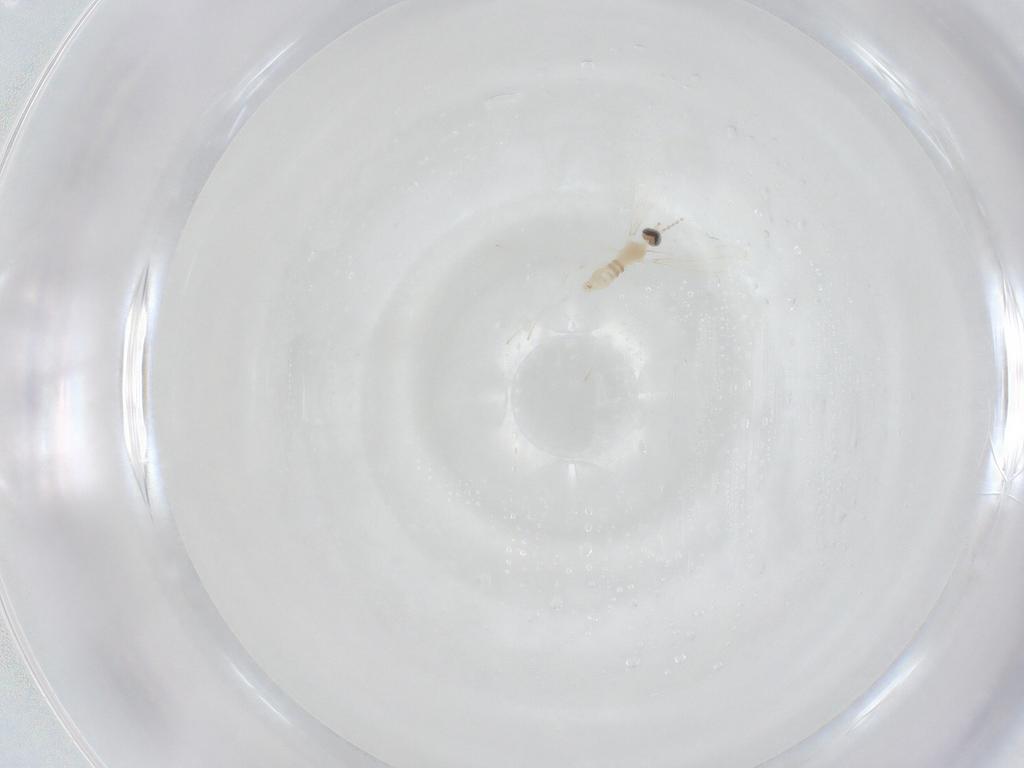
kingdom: Animalia
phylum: Arthropoda
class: Insecta
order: Diptera
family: Cecidomyiidae
